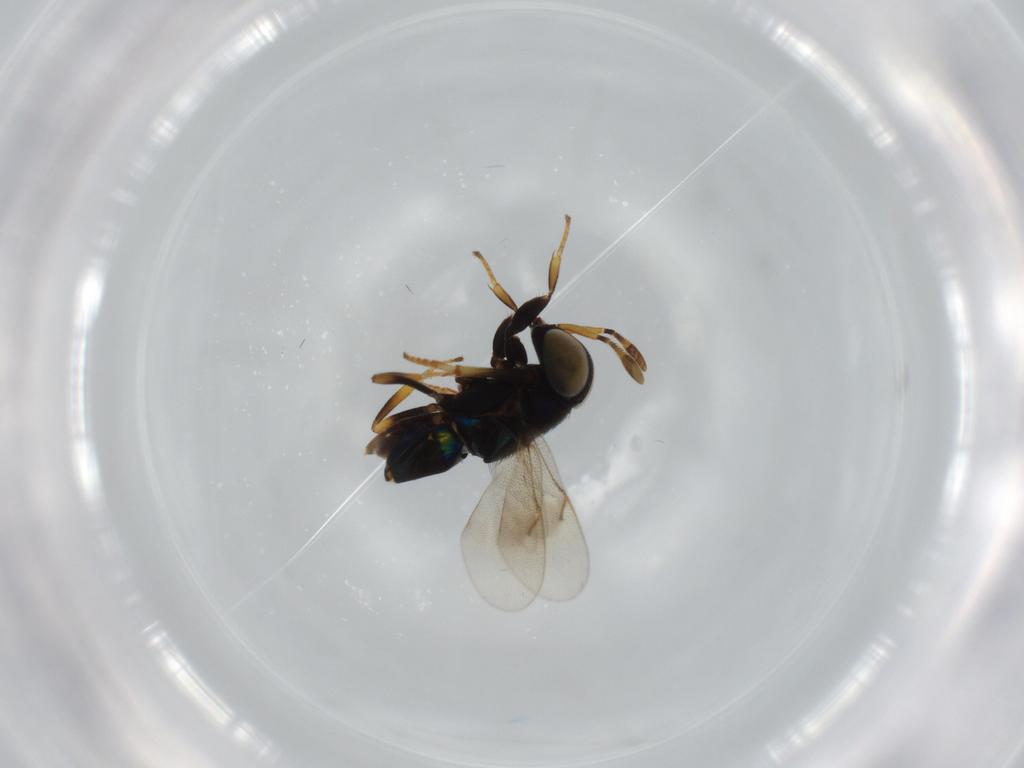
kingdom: Animalia
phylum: Arthropoda
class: Insecta
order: Hymenoptera
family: Encyrtidae
